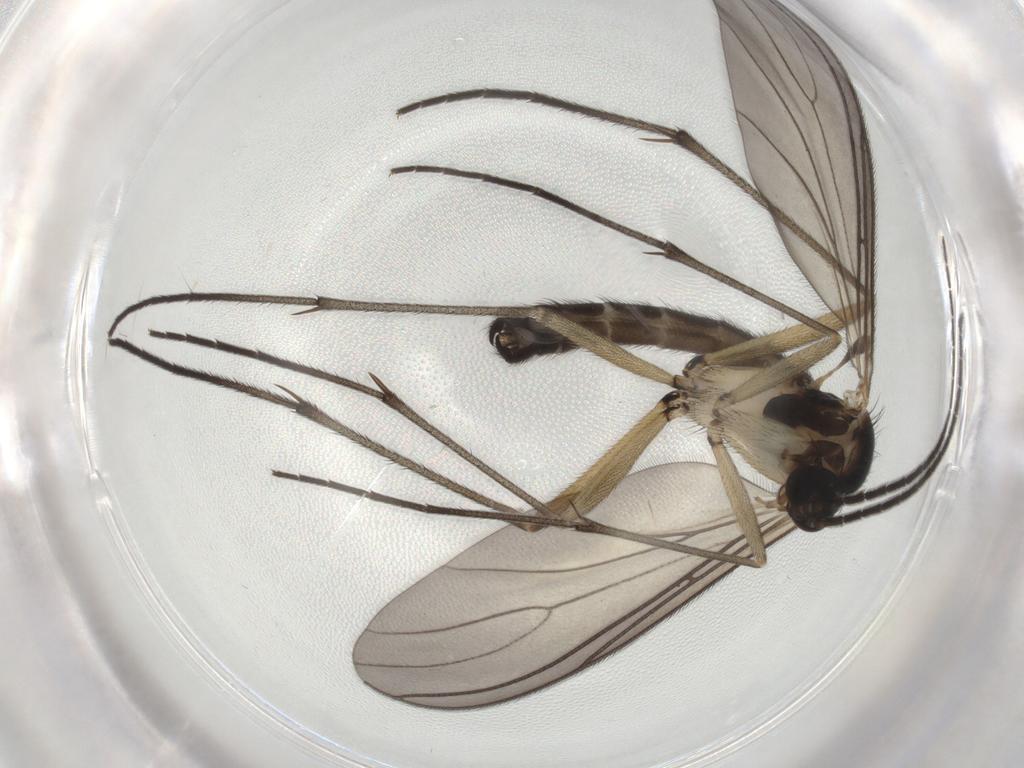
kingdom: Animalia
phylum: Arthropoda
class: Insecta
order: Diptera
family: Sciaridae
